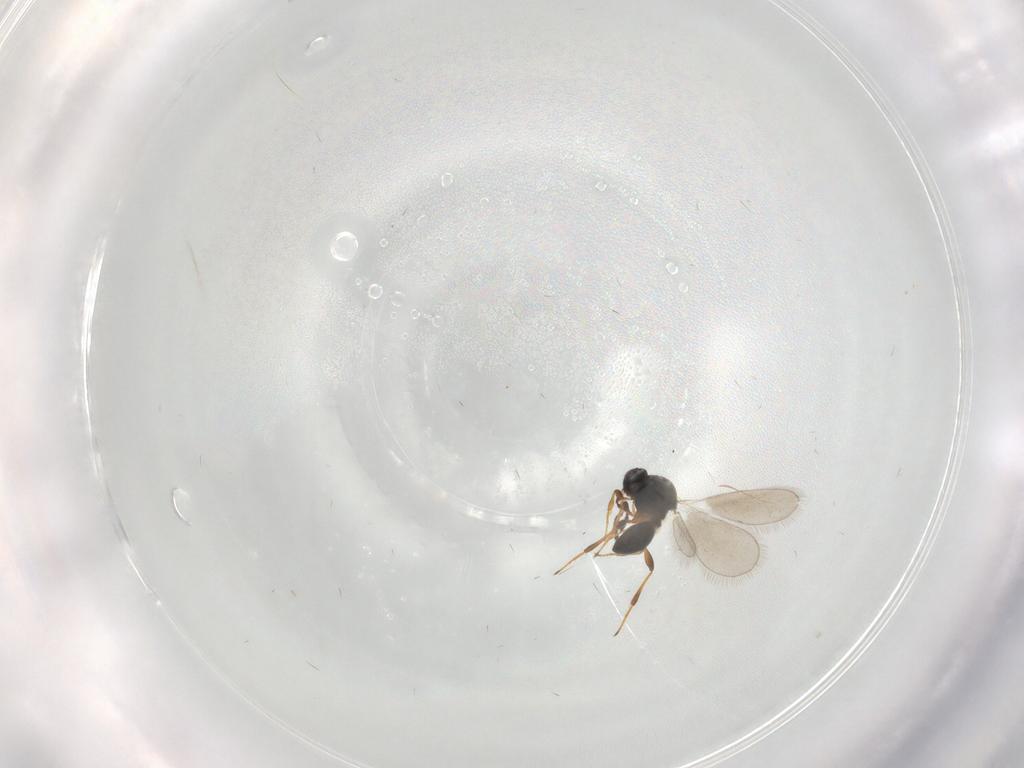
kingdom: Animalia
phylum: Arthropoda
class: Insecta
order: Hymenoptera
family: Platygastridae
